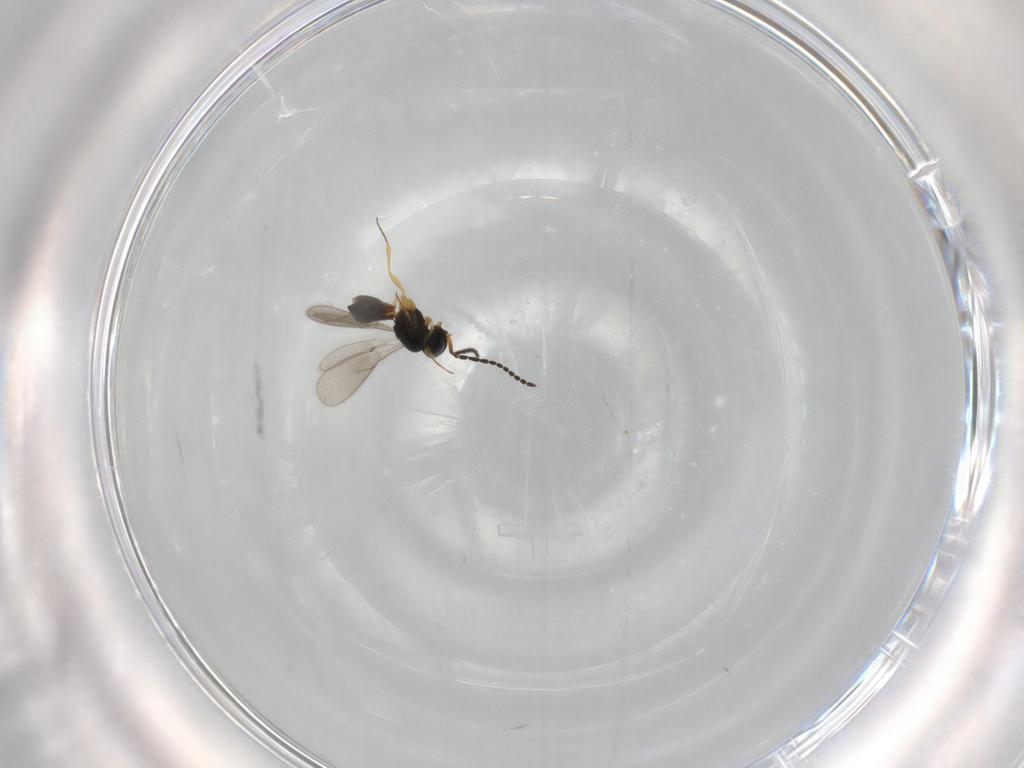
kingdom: Animalia
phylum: Arthropoda
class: Insecta
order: Hymenoptera
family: Scelionidae
